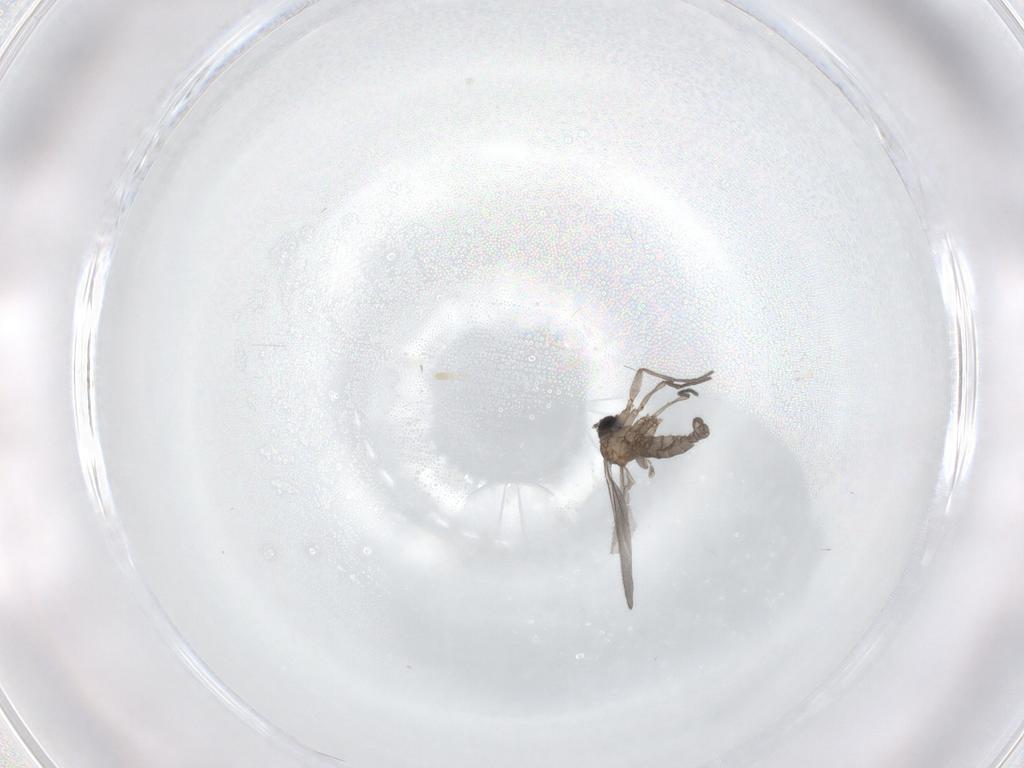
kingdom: Animalia
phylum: Arthropoda
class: Insecta
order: Diptera
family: Sciaridae
